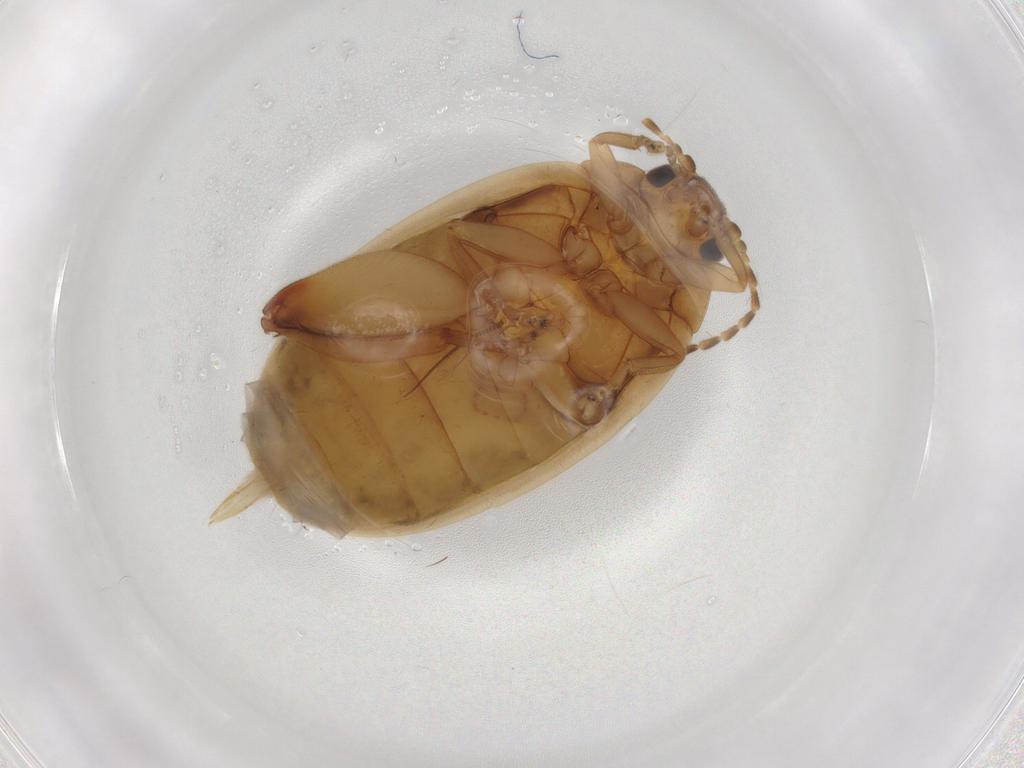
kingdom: Animalia
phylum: Arthropoda
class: Insecta
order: Coleoptera
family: Scirtidae
